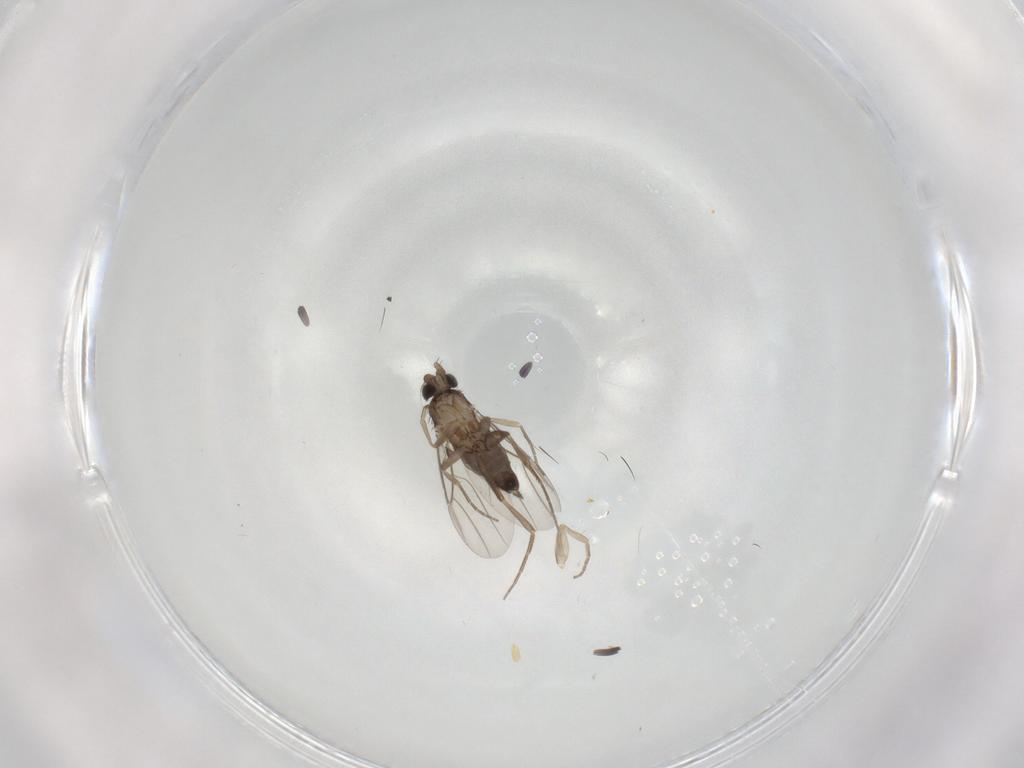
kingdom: Animalia
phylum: Arthropoda
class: Insecta
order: Diptera
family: Phoridae
